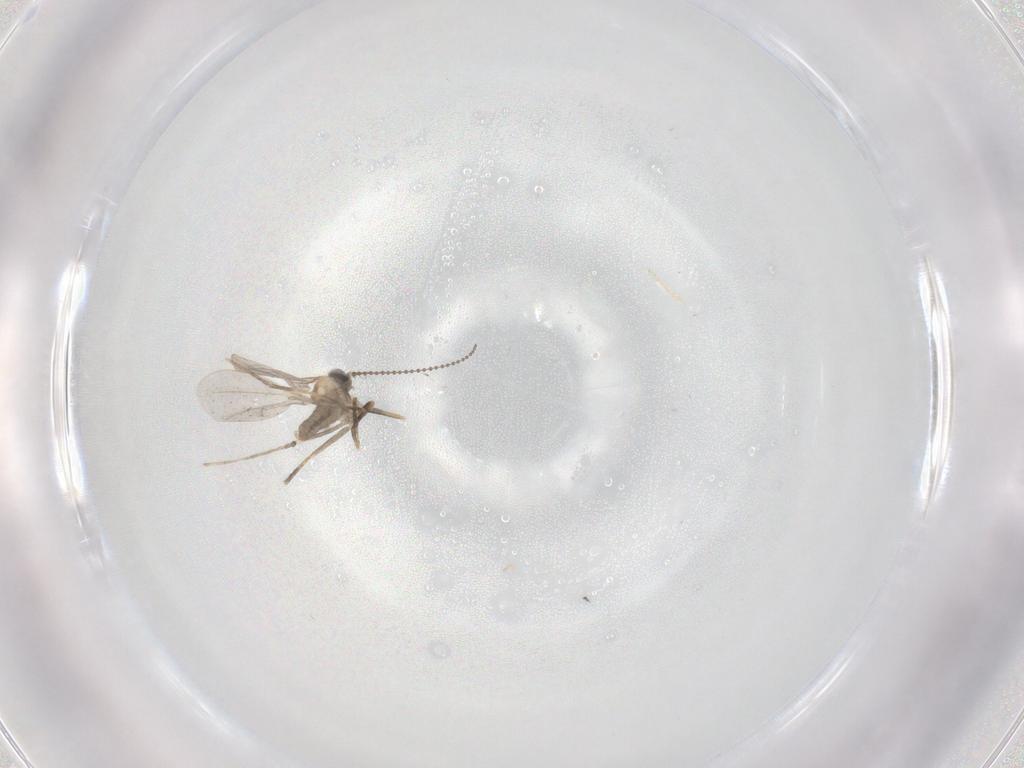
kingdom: Animalia
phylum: Arthropoda
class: Insecta
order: Diptera
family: Cecidomyiidae
